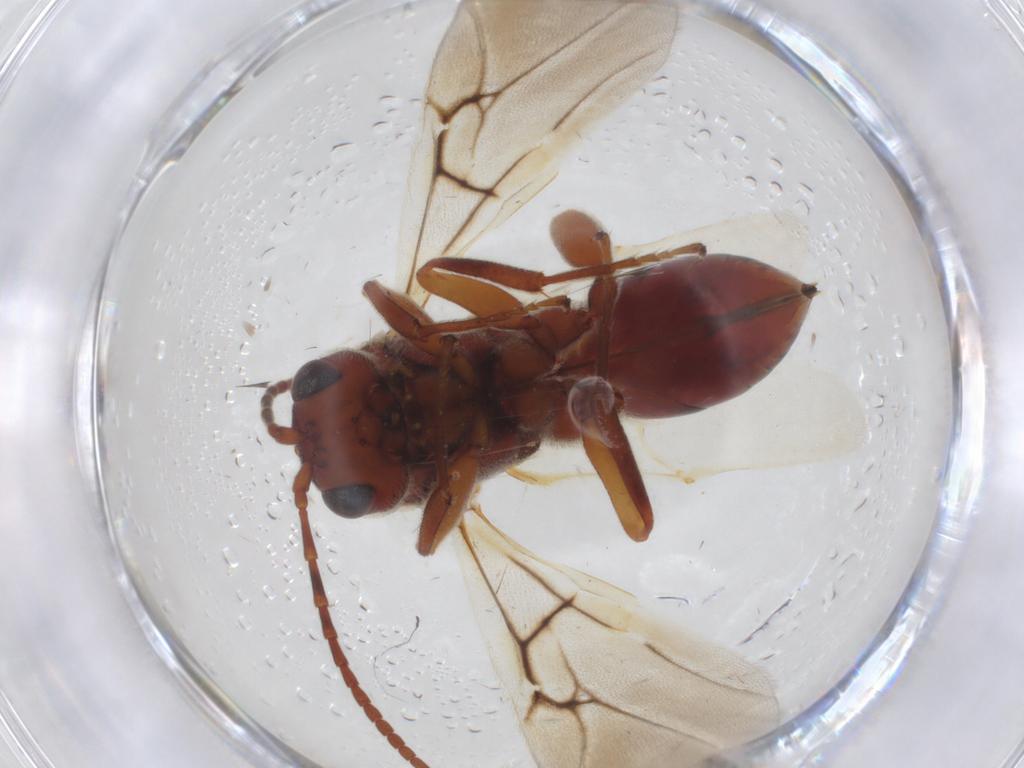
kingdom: Animalia
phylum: Arthropoda
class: Insecta
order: Hymenoptera
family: Cynipidae
